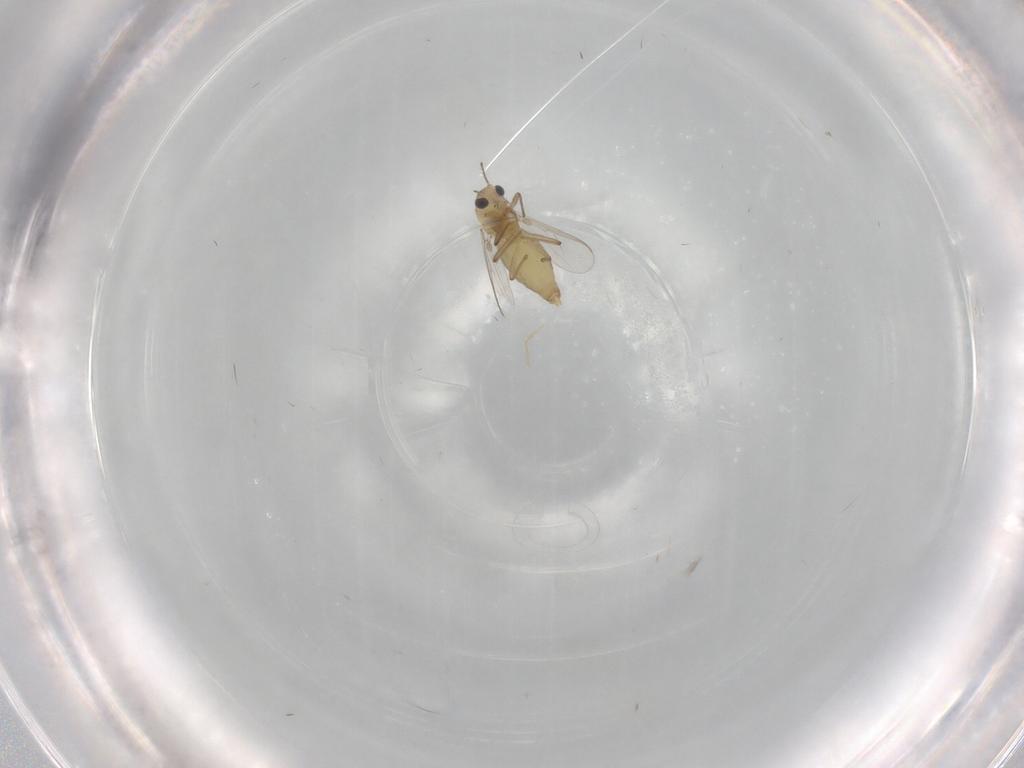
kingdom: Animalia
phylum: Arthropoda
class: Insecta
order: Diptera
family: Chironomidae
